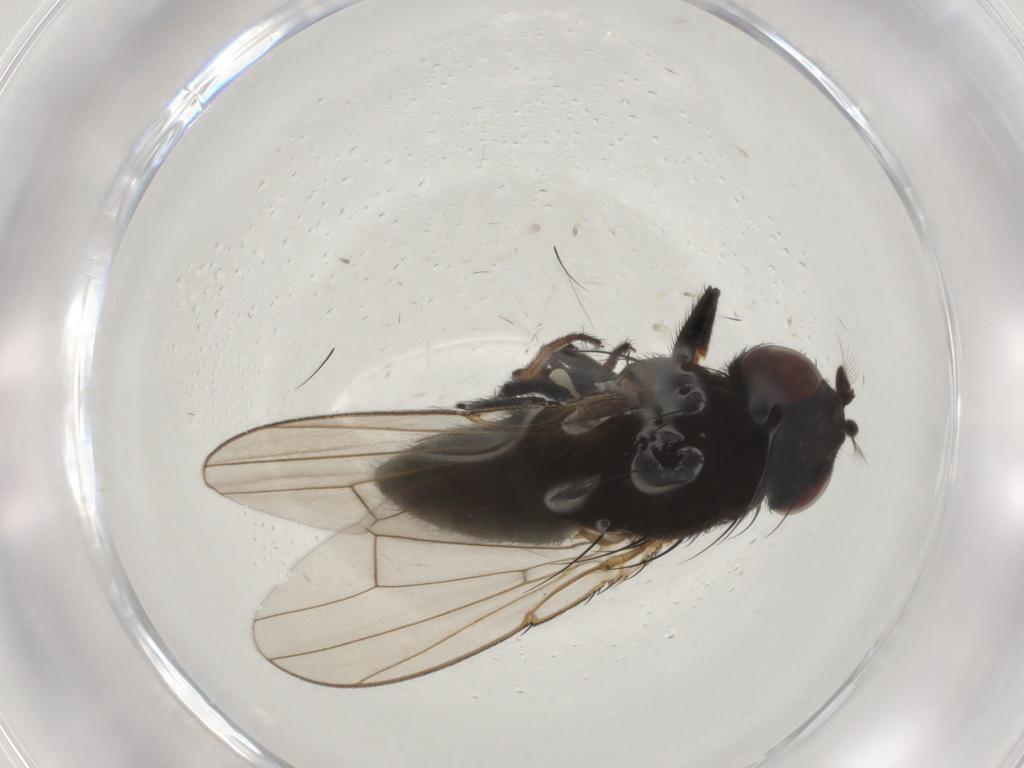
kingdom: Animalia
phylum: Arthropoda
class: Insecta
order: Diptera
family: Ephydridae
